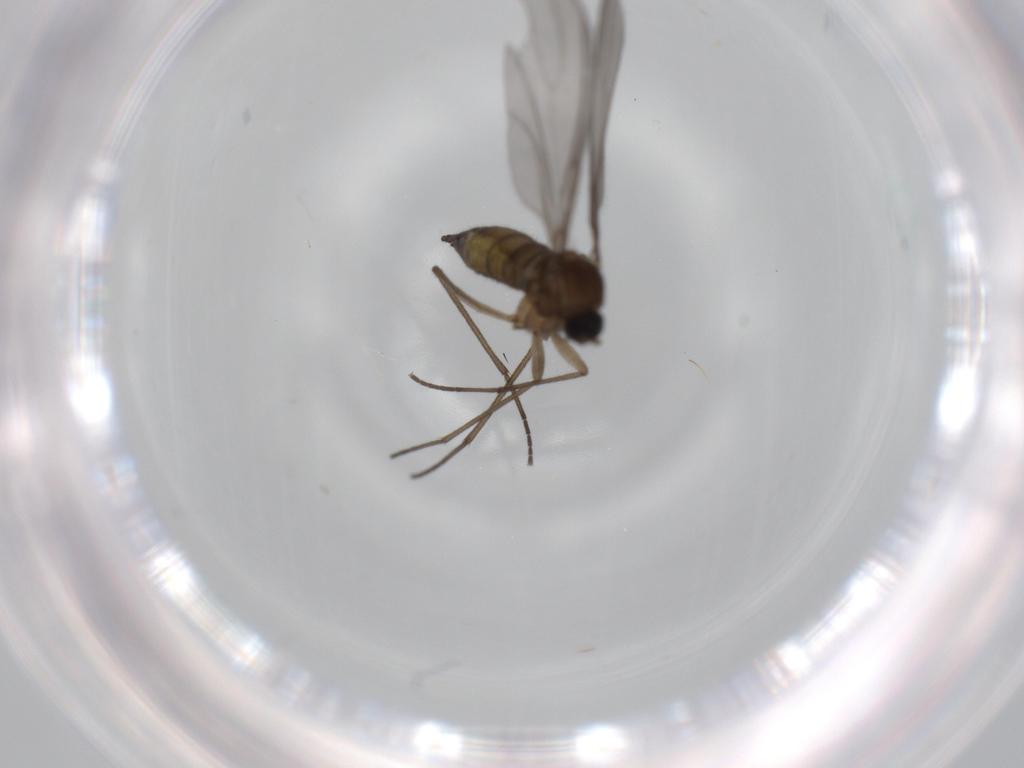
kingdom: Animalia
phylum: Arthropoda
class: Insecta
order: Diptera
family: Sciaridae
